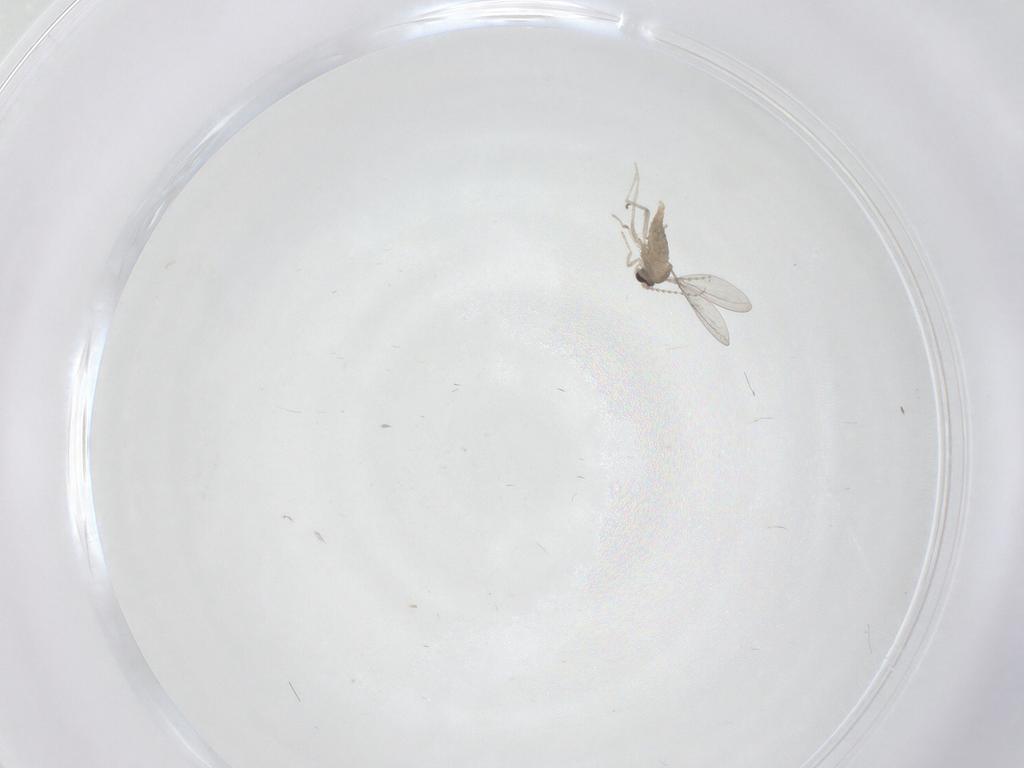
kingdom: Animalia
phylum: Arthropoda
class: Insecta
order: Diptera
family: Cecidomyiidae
